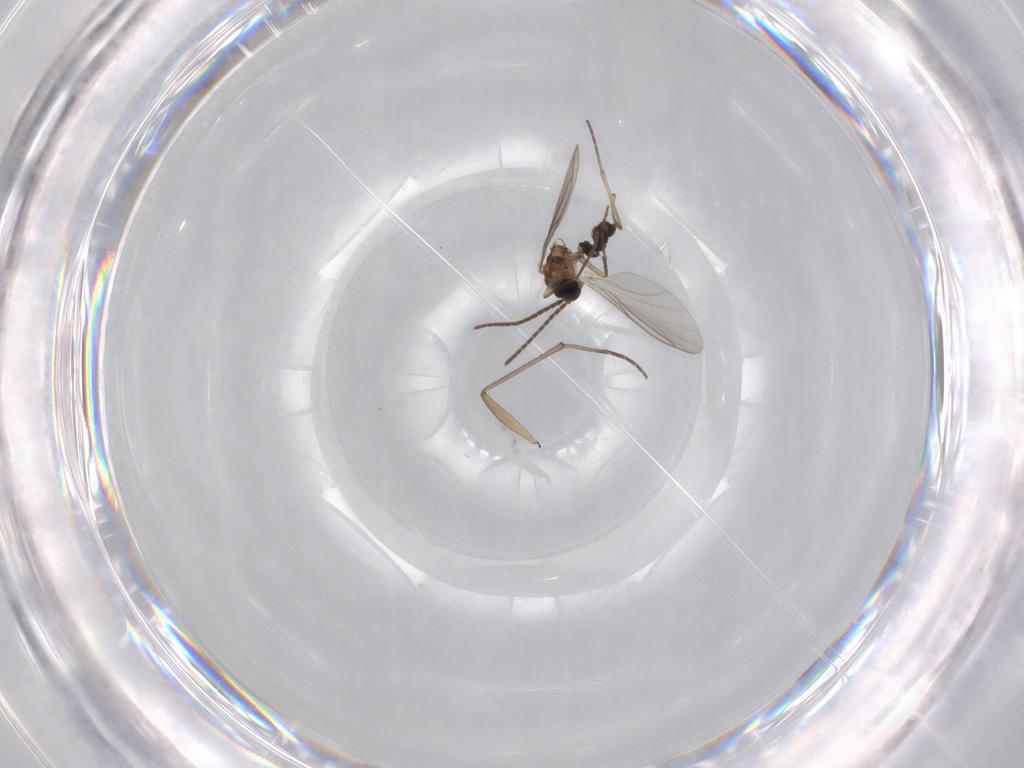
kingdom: Animalia
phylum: Arthropoda
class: Insecta
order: Diptera
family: Sciaridae
